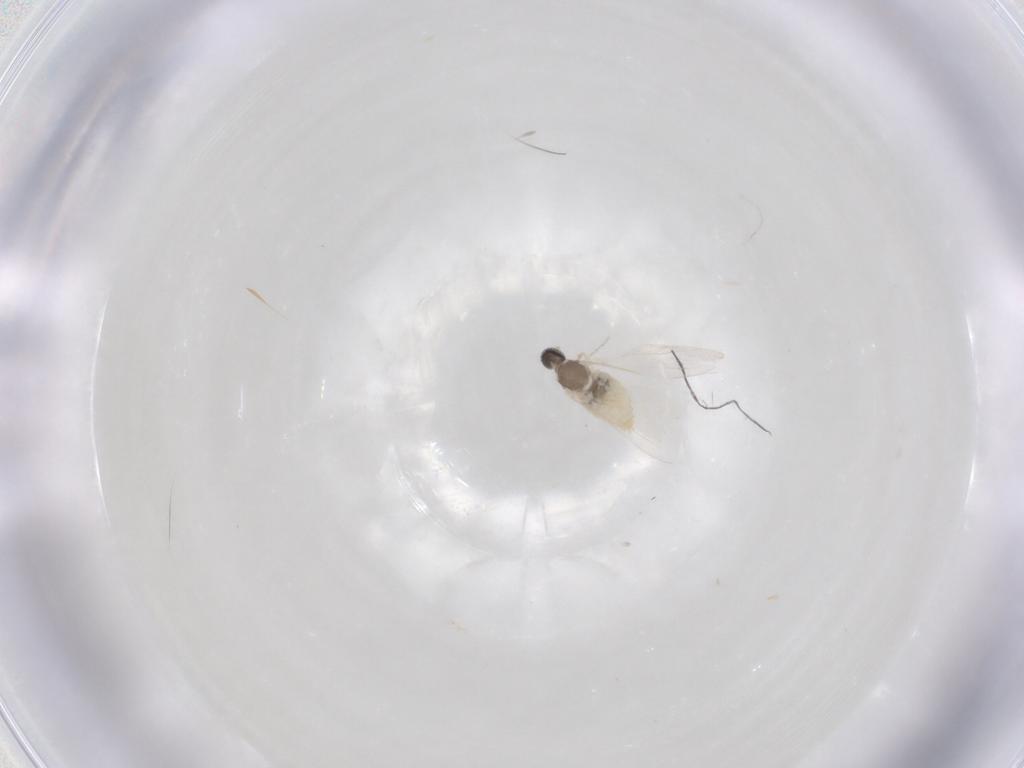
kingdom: Animalia
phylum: Arthropoda
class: Insecta
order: Diptera
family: Cecidomyiidae
